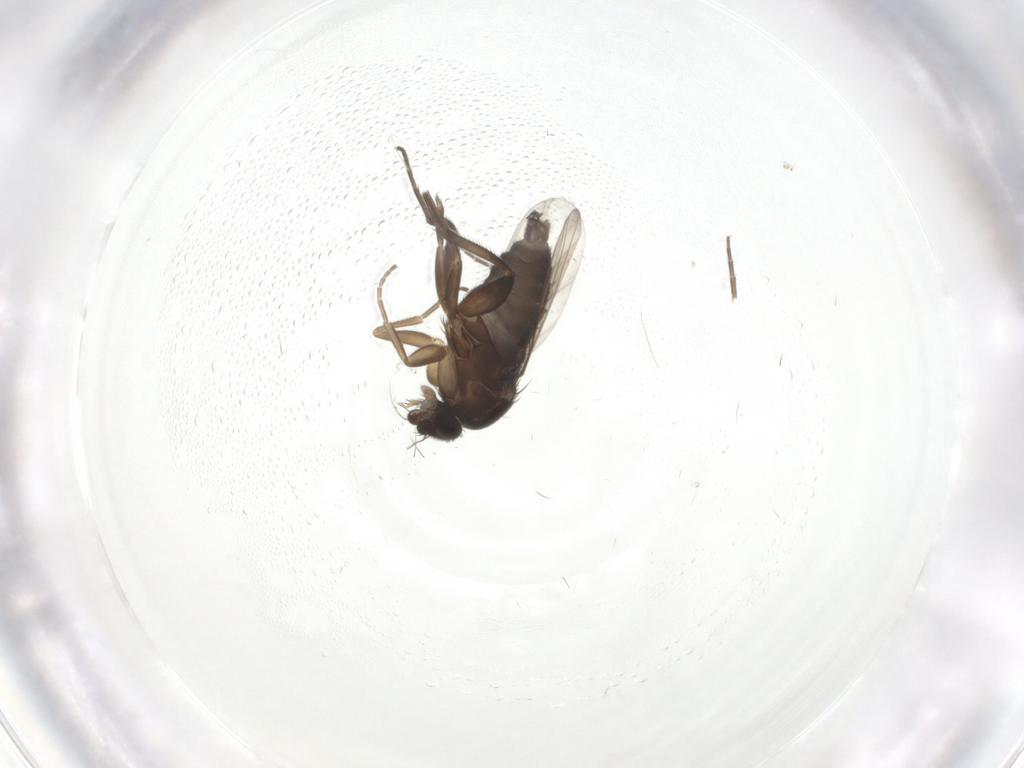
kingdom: Animalia
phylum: Arthropoda
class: Insecta
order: Diptera
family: Phoridae
